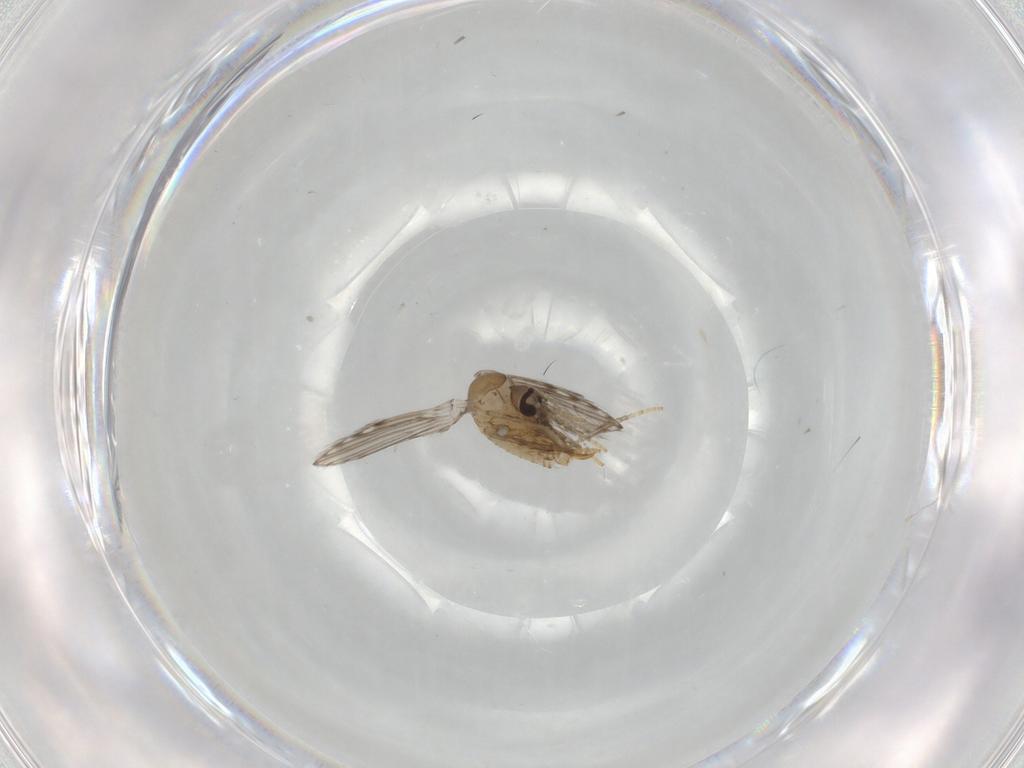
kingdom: Animalia
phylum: Arthropoda
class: Insecta
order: Diptera
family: Psychodidae
